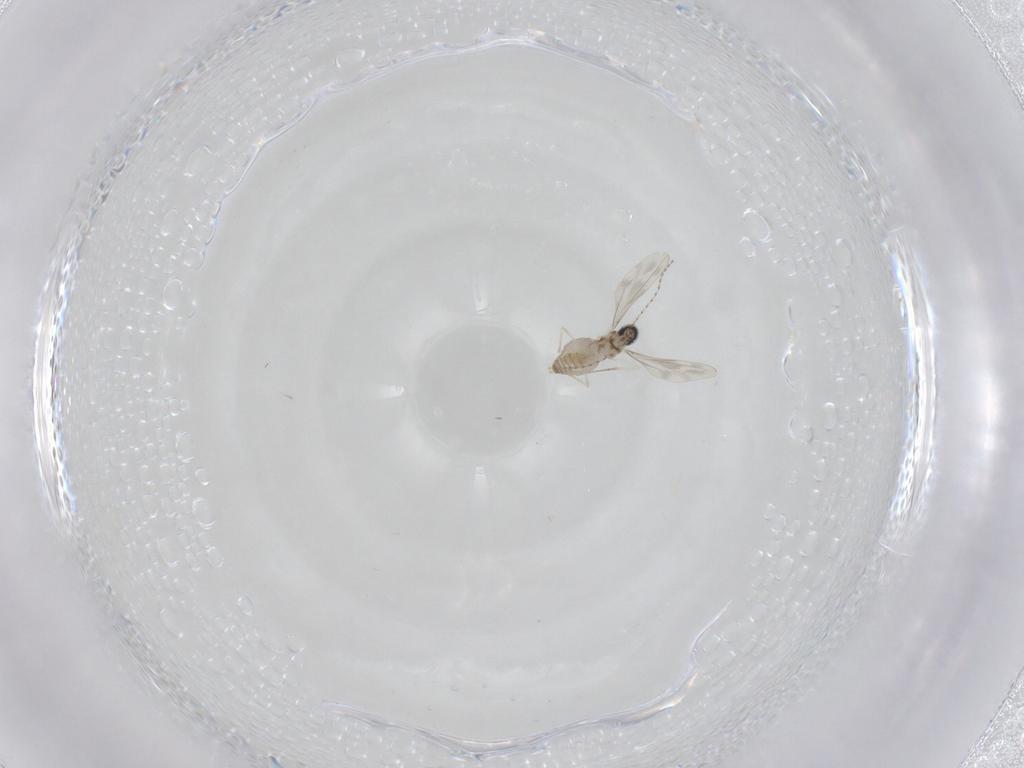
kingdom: Animalia
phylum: Arthropoda
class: Insecta
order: Diptera
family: Cecidomyiidae
